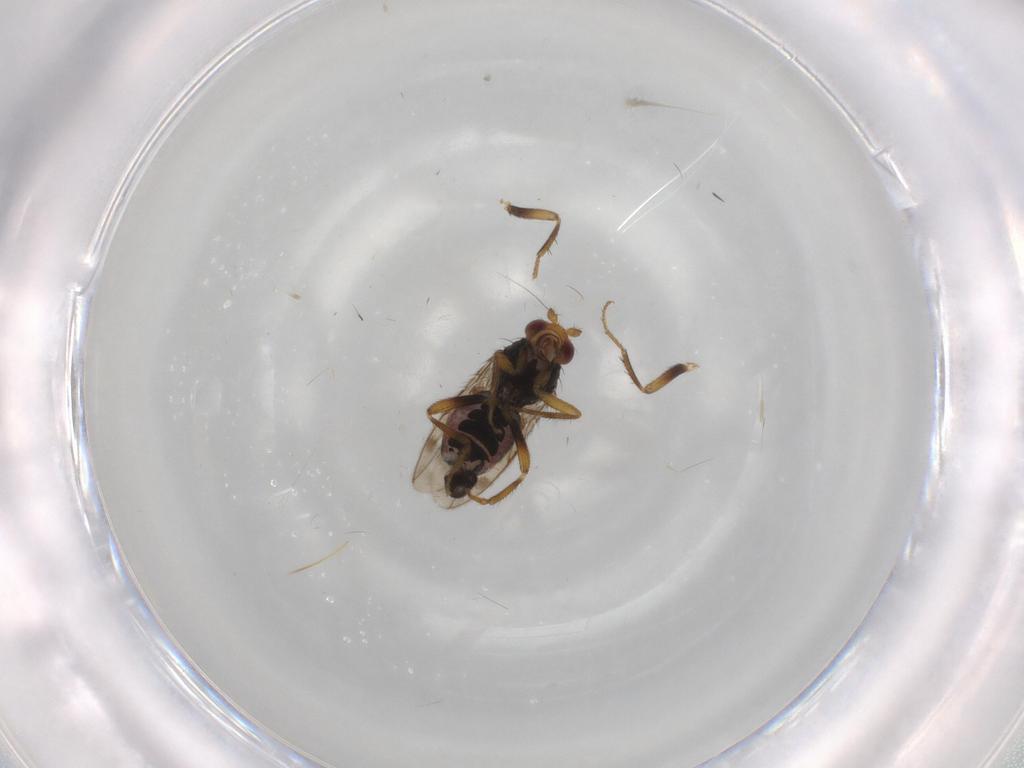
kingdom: Animalia
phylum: Arthropoda
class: Insecta
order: Diptera
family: Sphaeroceridae
